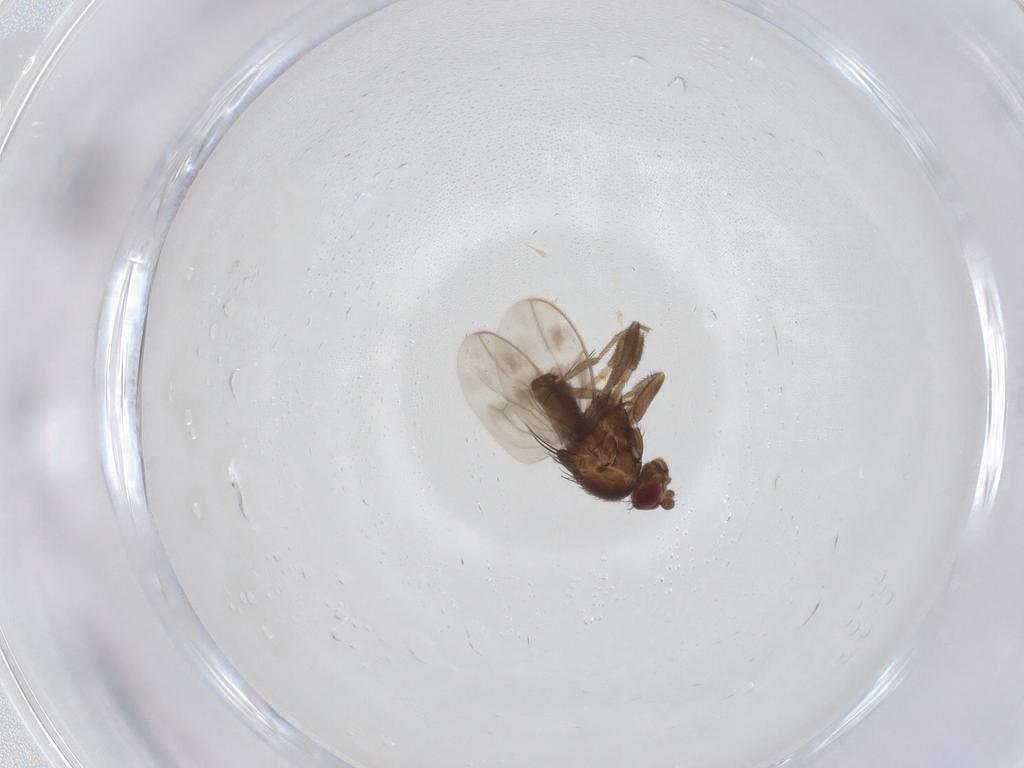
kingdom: Animalia
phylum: Arthropoda
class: Insecta
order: Diptera
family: Sphaeroceridae
